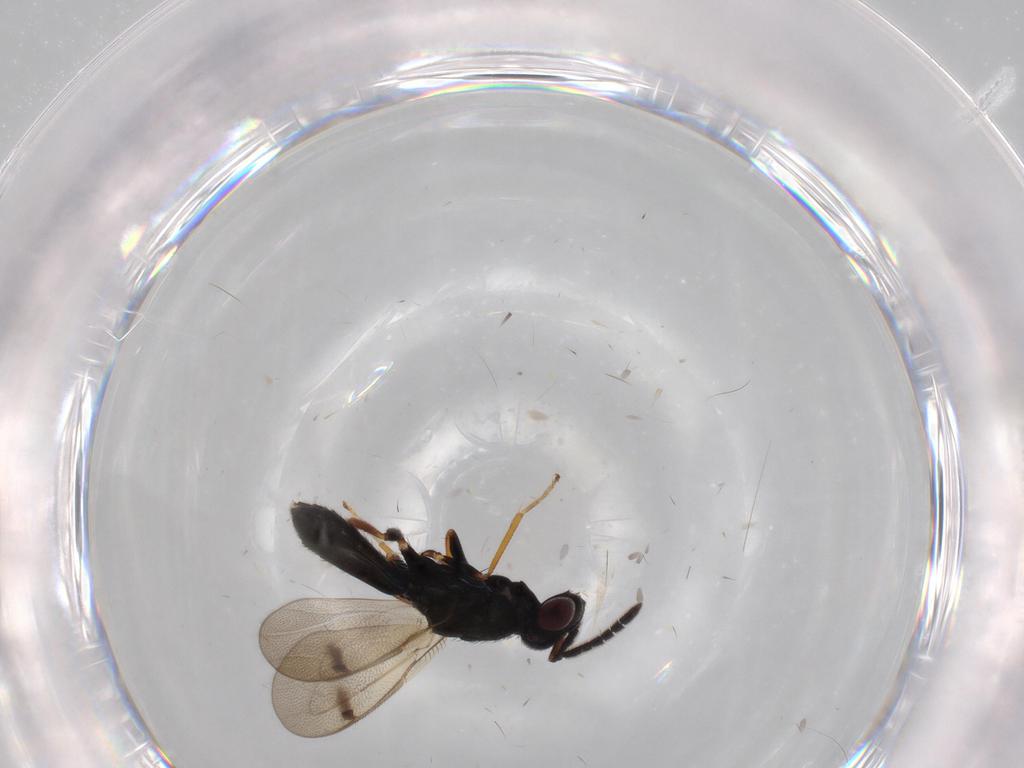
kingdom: Animalia
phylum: Arthropoda
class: Insecta
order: Hymenoptera
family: Pteromalidae
